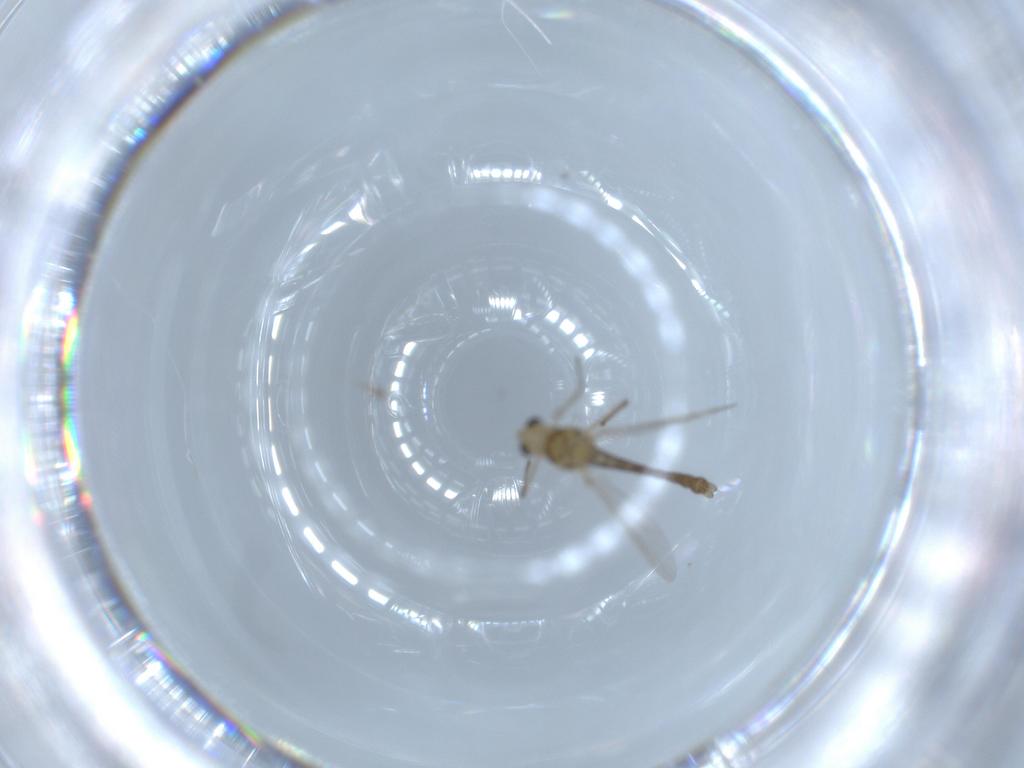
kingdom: Animalia
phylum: Arthropoda
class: Insecta
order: Diptera
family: Chironomidae
